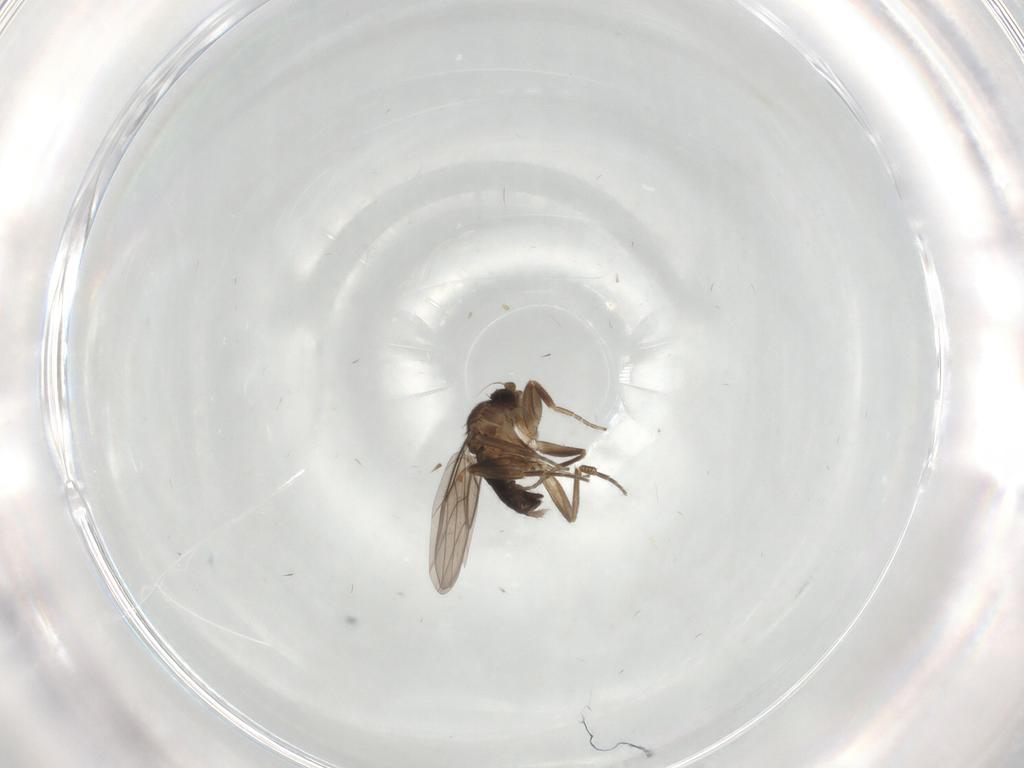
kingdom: Animalia
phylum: Arthropoda
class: Insecta
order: Diptera
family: Phoridae
